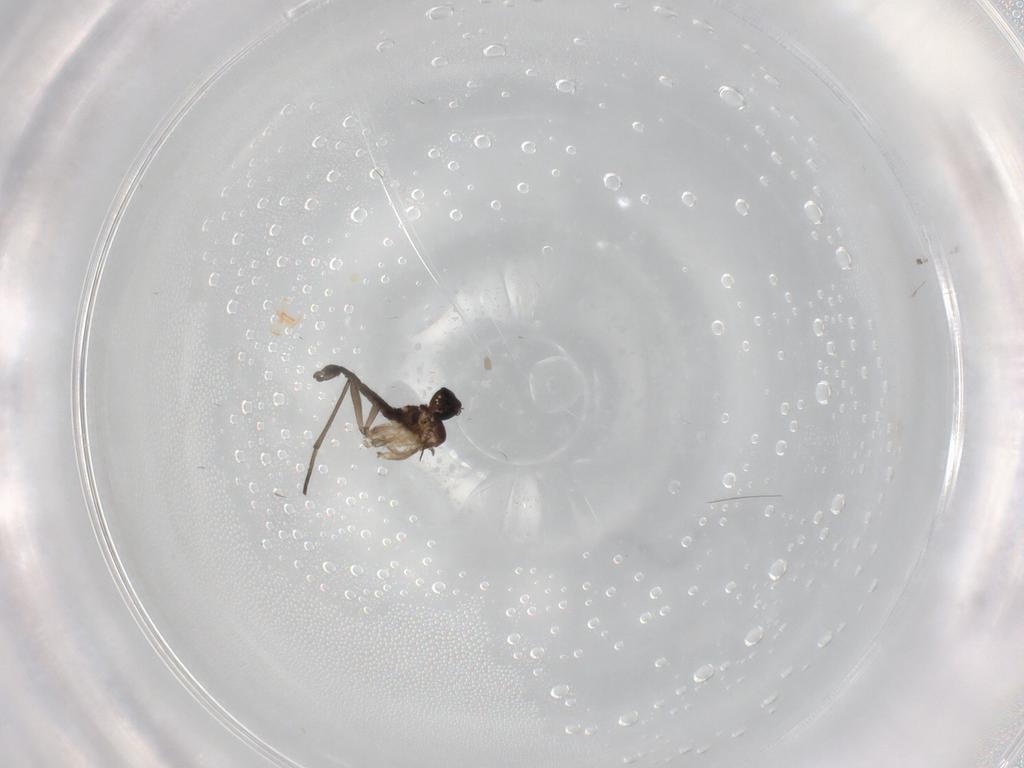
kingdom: Animalia
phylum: Arthropoda
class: Insecta
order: Diptera
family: Sciaridae
